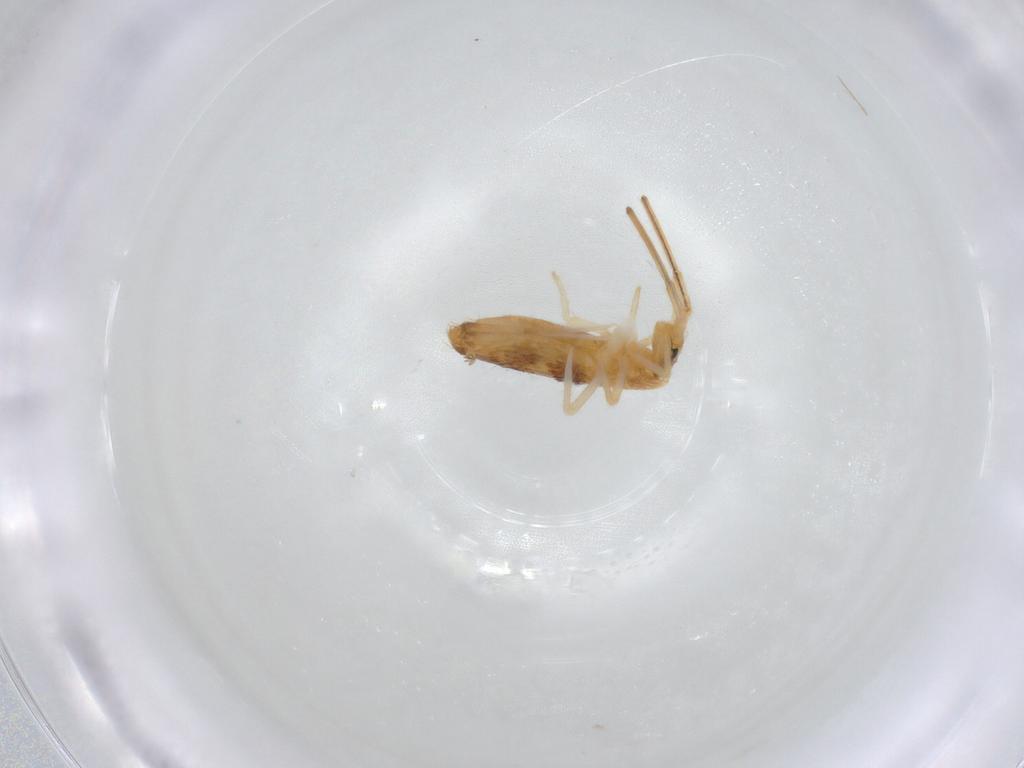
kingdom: Animalia
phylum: Arthropoda
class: Collembola
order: Entomobryomorpha
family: Entomobryidae
